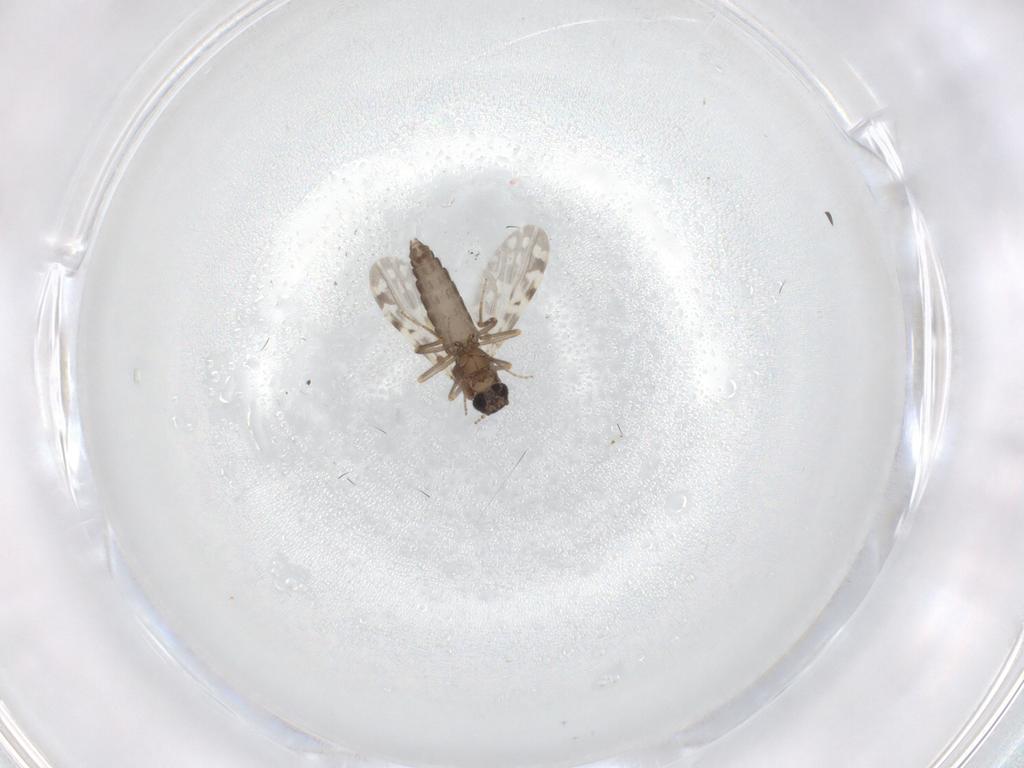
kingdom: Animalia
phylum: Arthropoda
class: Insecta
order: Diptera
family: Ceratopogonidae
